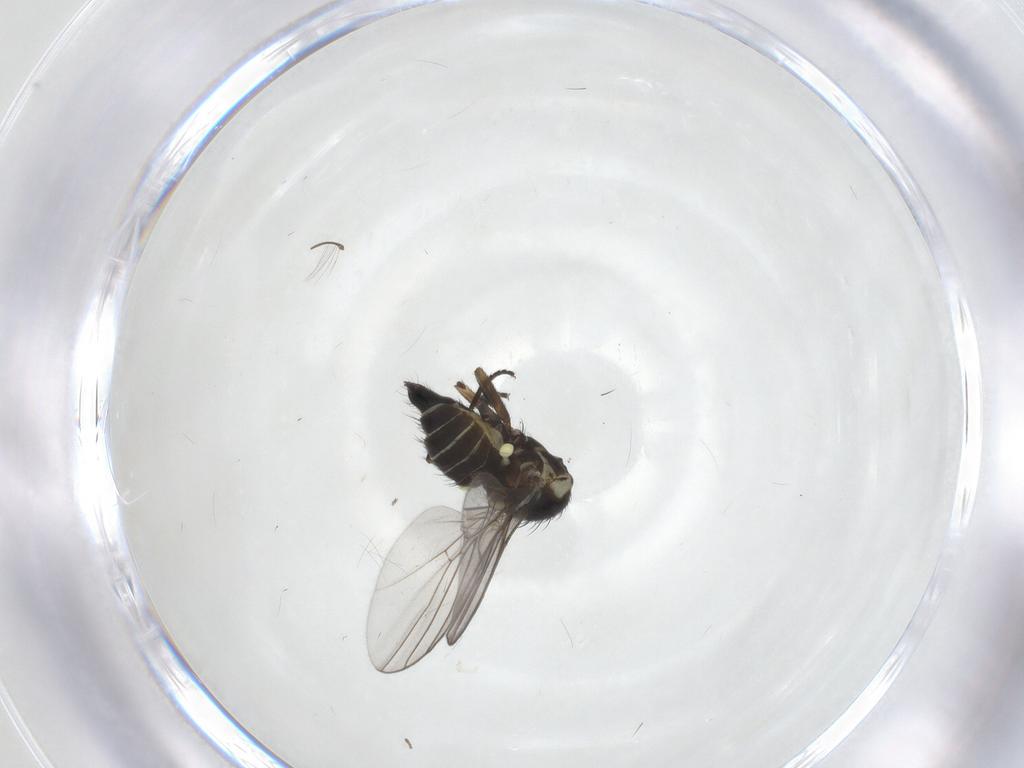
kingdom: Animalia
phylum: Arthropoda
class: Insecta
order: Diptera
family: Agromyzidae
